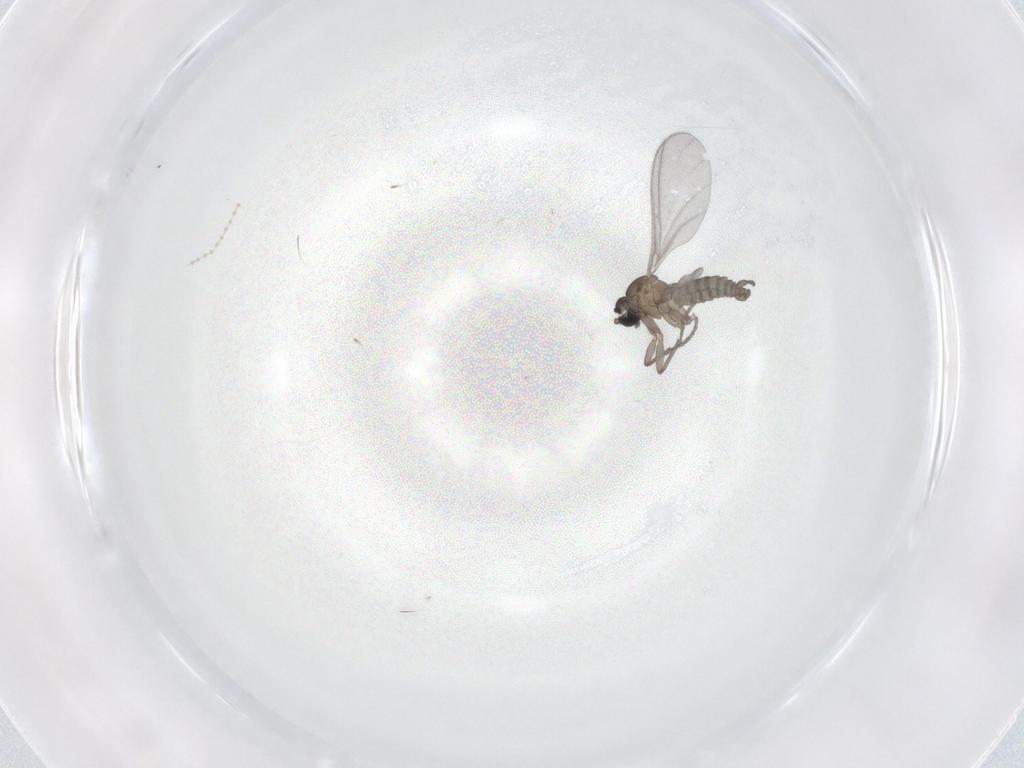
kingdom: Animalia
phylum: Arthropoda
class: Insecta
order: Diptera
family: Sciaridae
